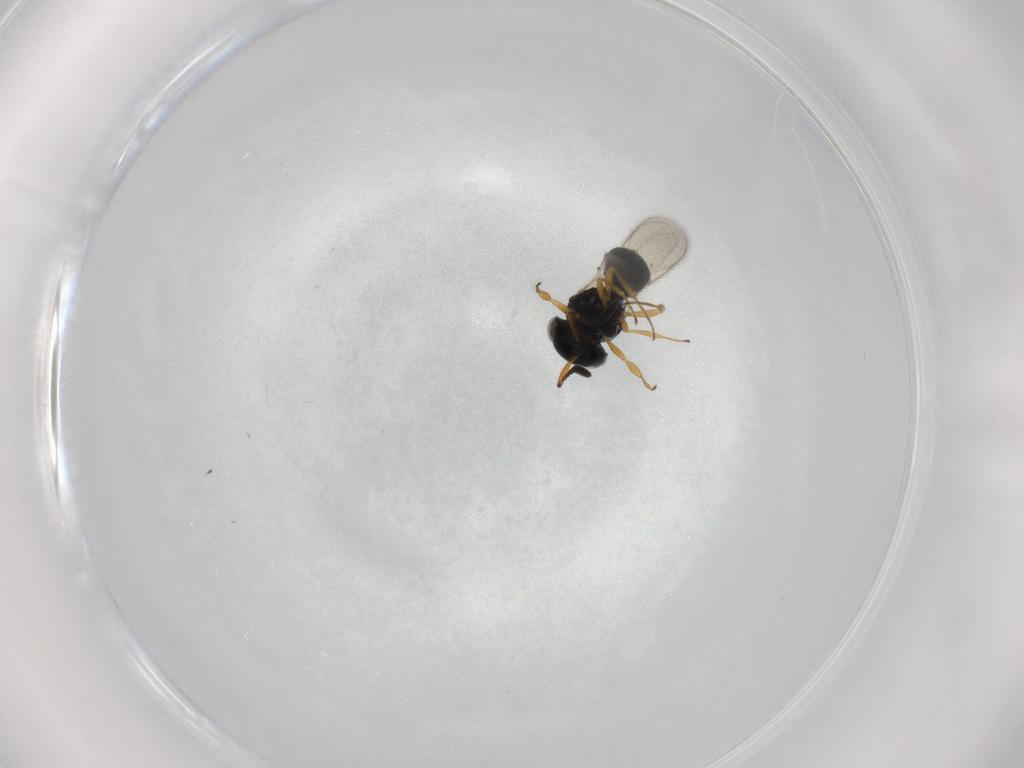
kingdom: Animalia
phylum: Arthropoda
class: Insecta
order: Hymenoptera
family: Scelionidae
